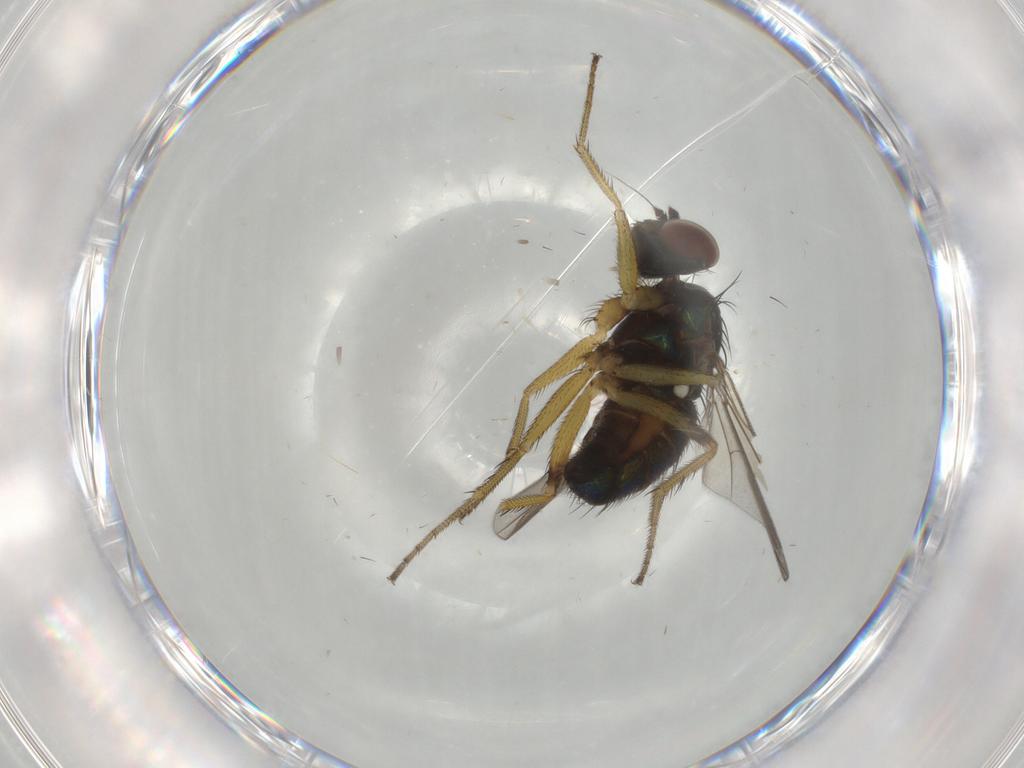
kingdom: Animalia
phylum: Arthropoda
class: Insecta
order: Diptera
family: Dolichopodidae
